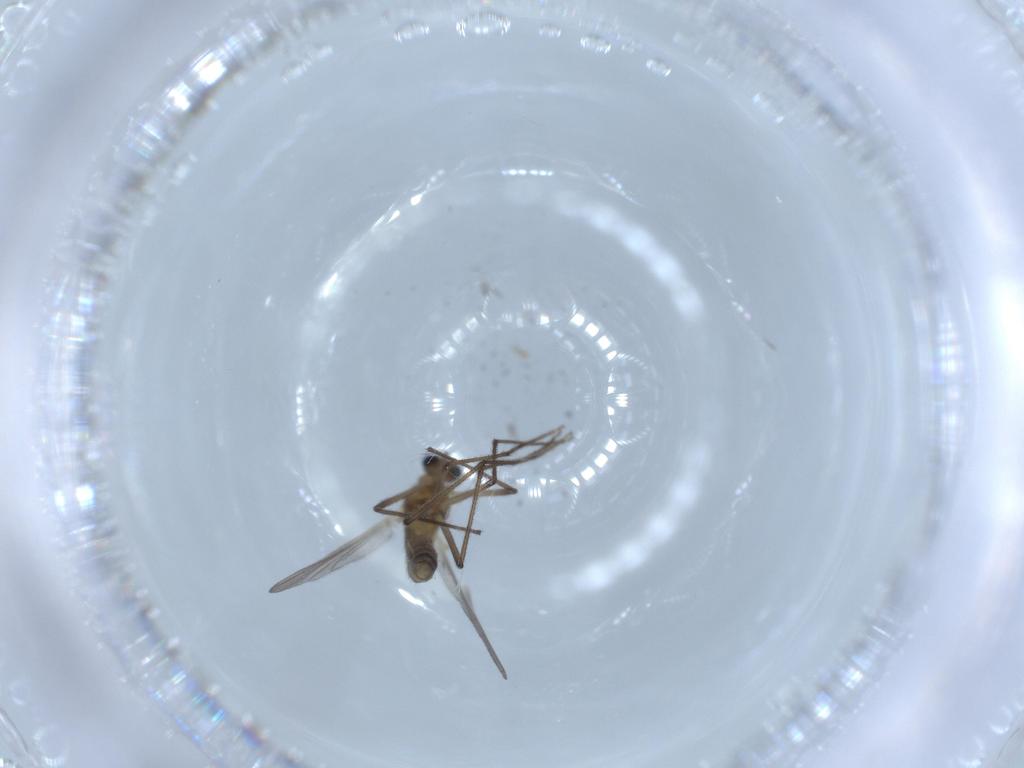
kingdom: Animalia
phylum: Arthropoda
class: Insecta
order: Diptera
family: Chironomidae
